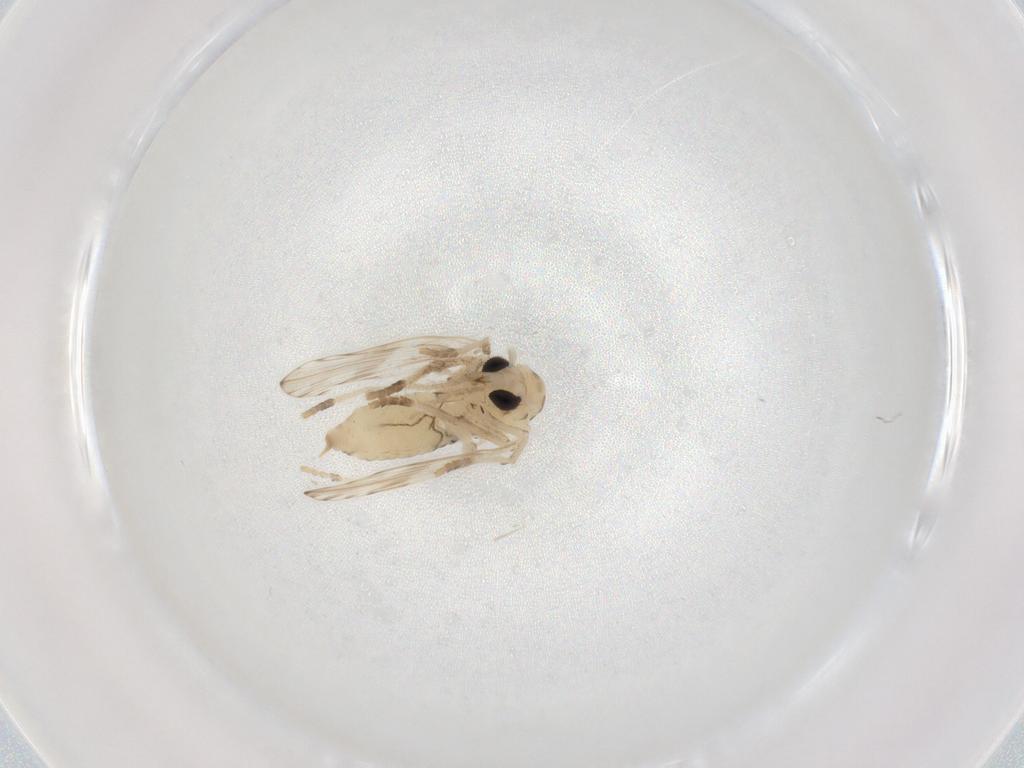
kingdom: Animalia
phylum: Arthropoda
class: Insecta
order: Diptera
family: Psychodidae
